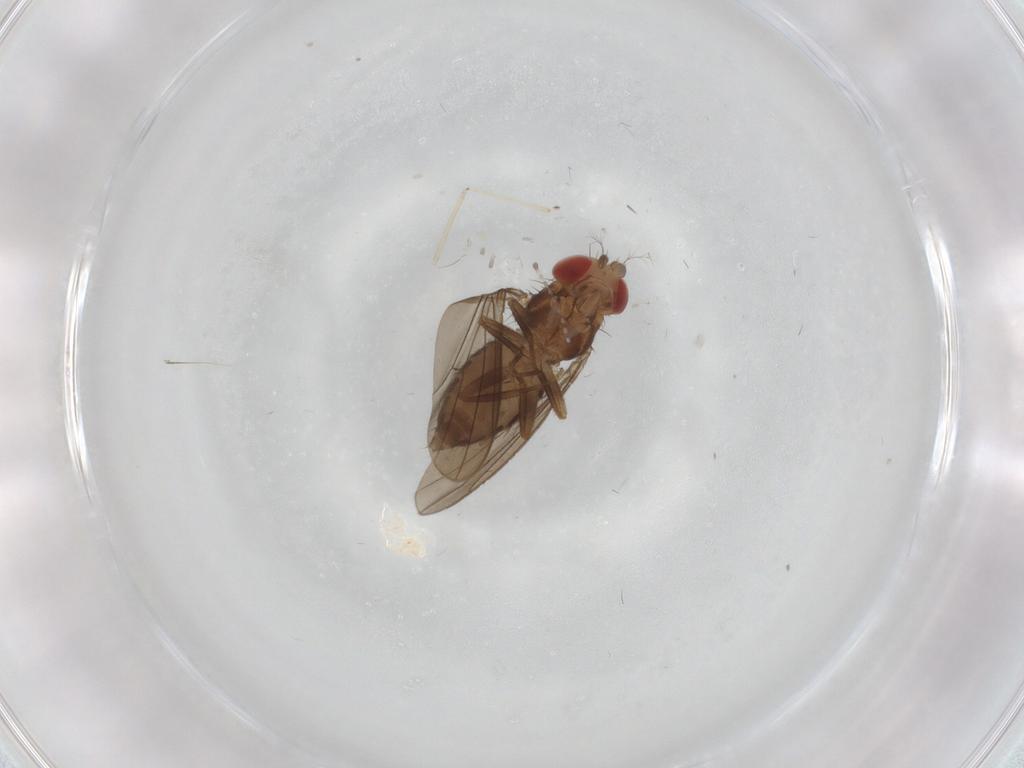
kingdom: Animalia
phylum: Arthropoda
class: Insecta
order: Diptera
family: Drosophilidae
